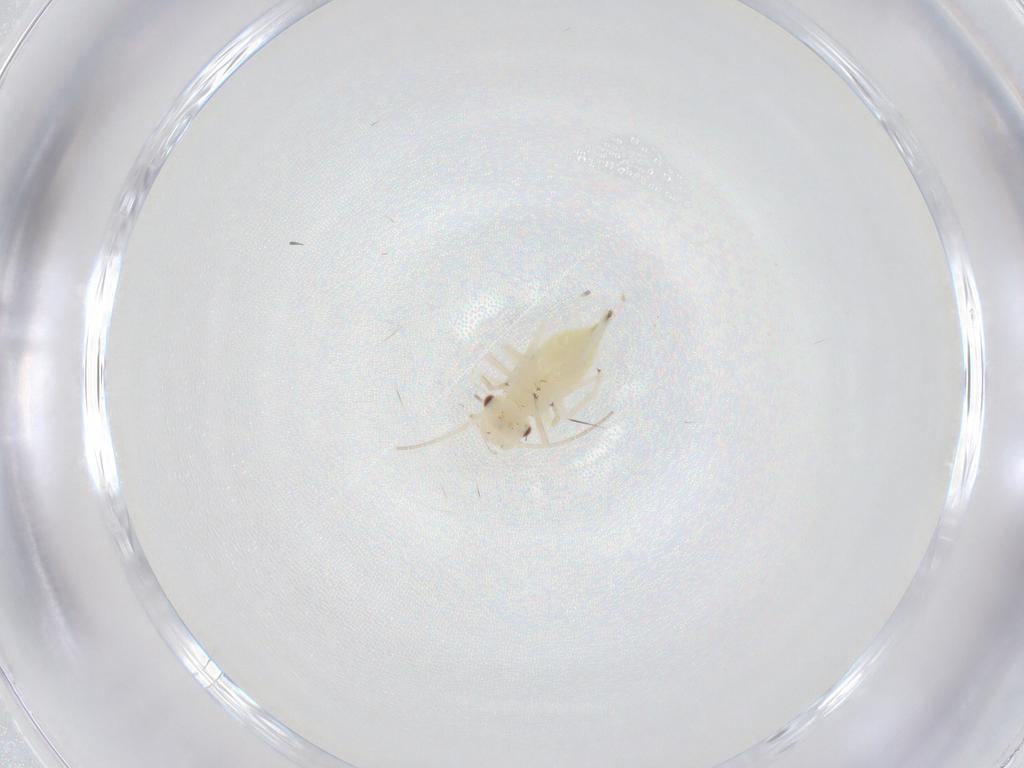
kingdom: Animalia
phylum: Arthropoda
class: Insecta
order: Psocodea
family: Caeciliusidae
